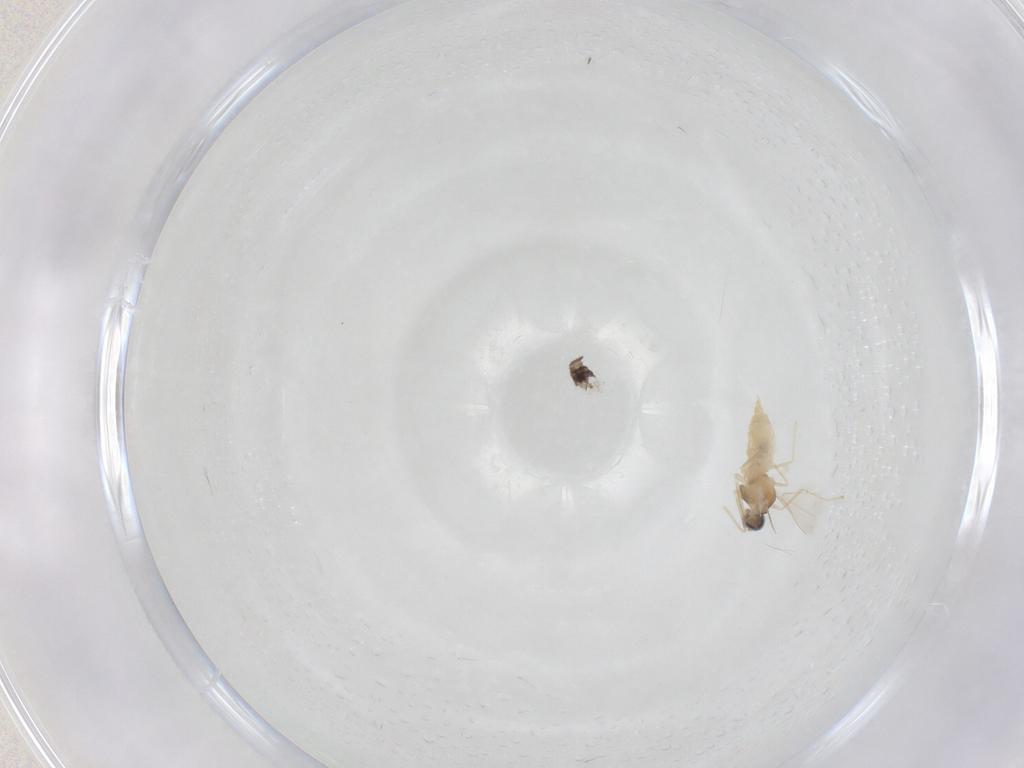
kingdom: Animalia
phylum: Arthropoda
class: Insecta
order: Diptera
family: Cecidomyiidae
